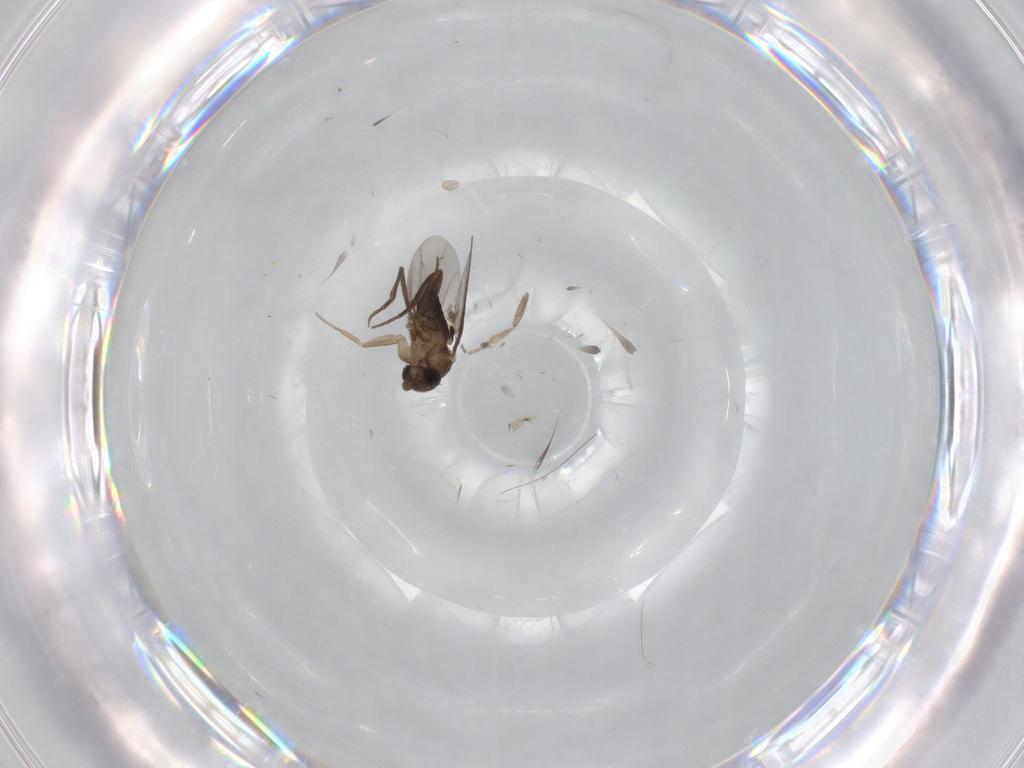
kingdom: Animalia
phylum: Arthropoda
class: Insecta
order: Diptera
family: Phoridae
